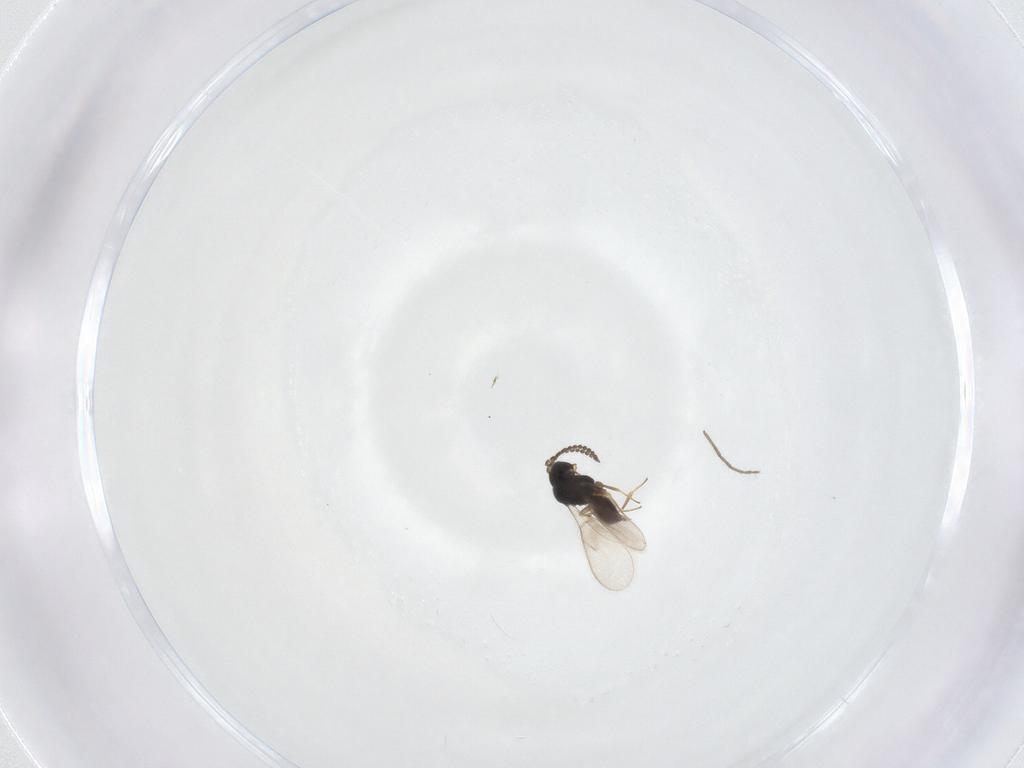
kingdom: Animalia
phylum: Arthropoda
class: Insecta
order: Hymenoptera
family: Scelionidae
